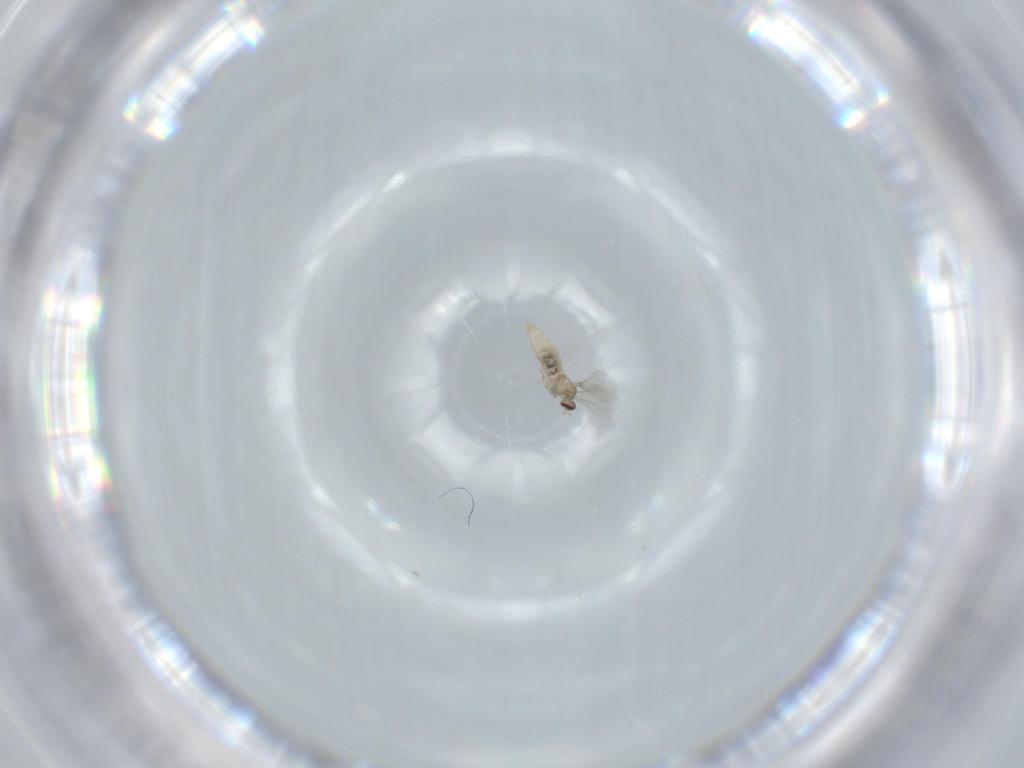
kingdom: Animalia
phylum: Arthropoda
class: Insecta
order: Diptera
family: Cecidomyiidae
